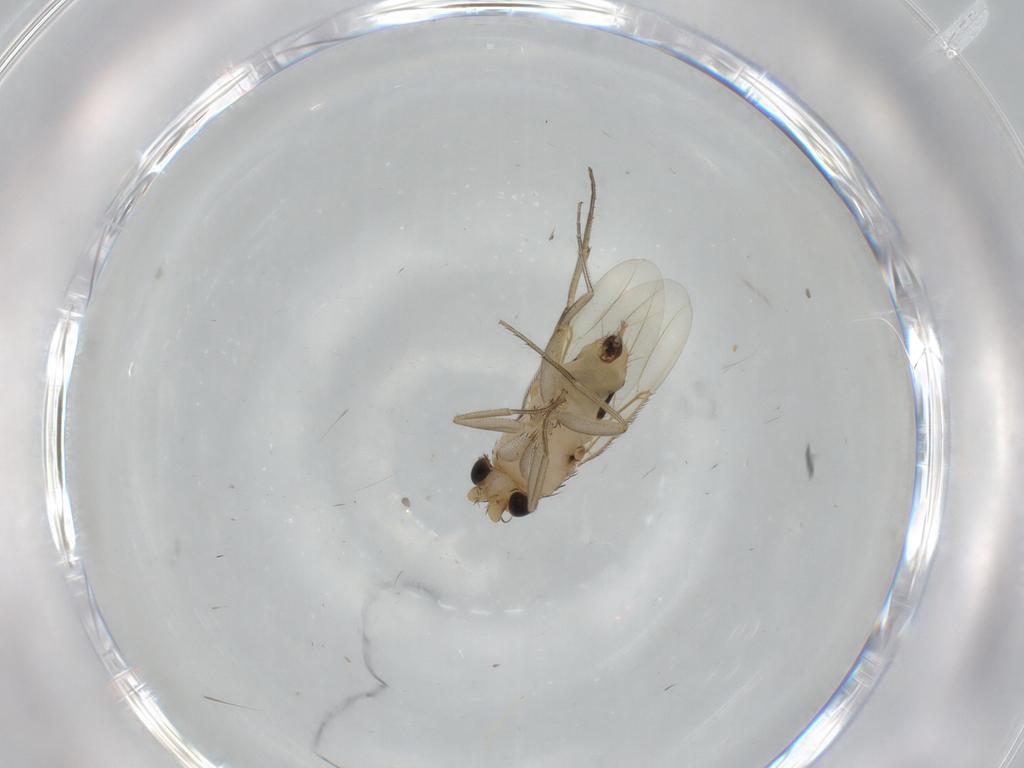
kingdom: Animalia
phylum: Arthropoda
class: Insecta
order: Diptera
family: Phoridae
